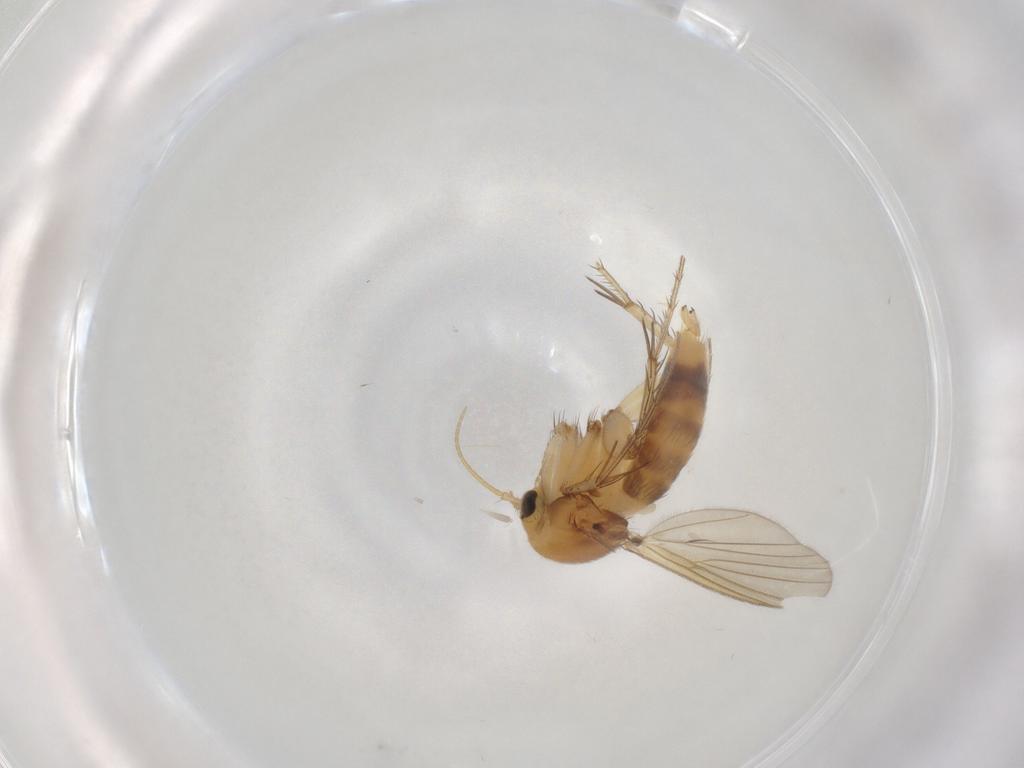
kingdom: Animalia
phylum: Arthropoda
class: Insecta
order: Diptera
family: Mycetophilidae
